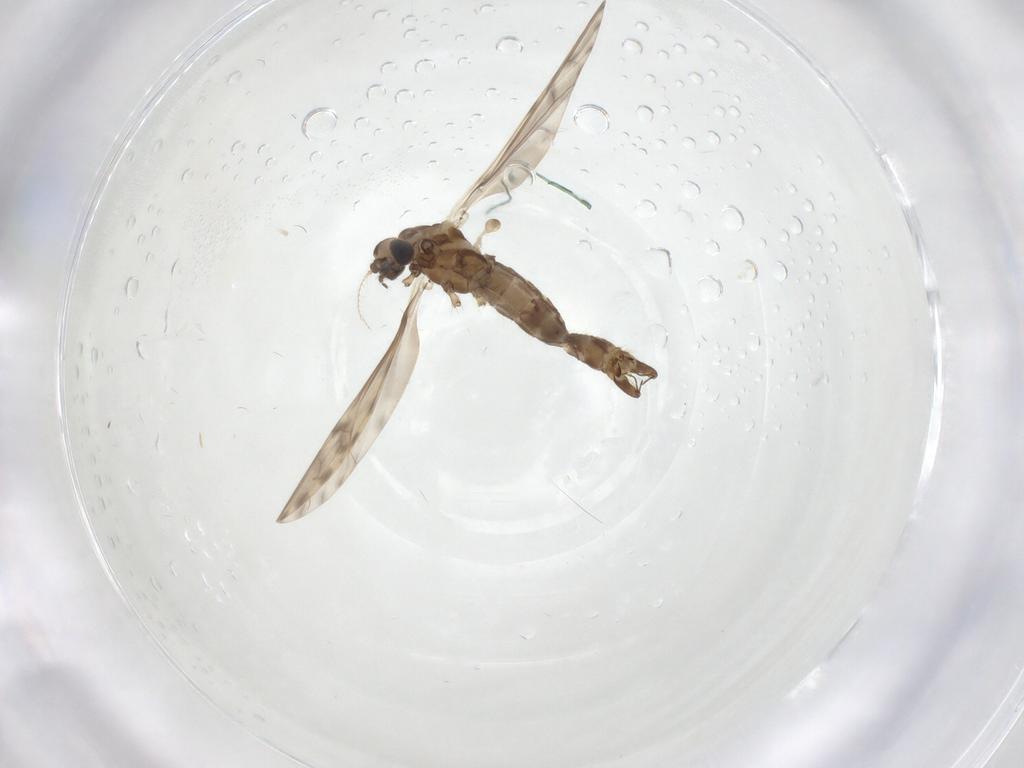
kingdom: Animalia
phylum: Arthropoda
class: Insecta
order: Diptera
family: Limoniidae
